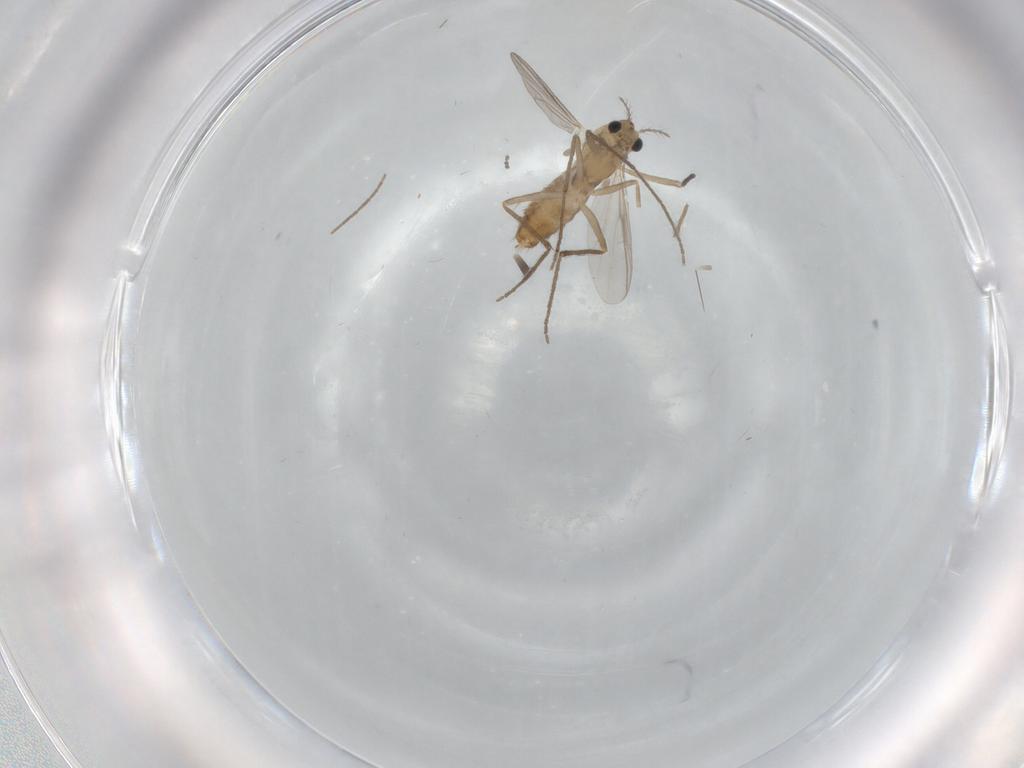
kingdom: Animalia
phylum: Arthropoda
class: Insecta
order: Diptera
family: Chironomidae
